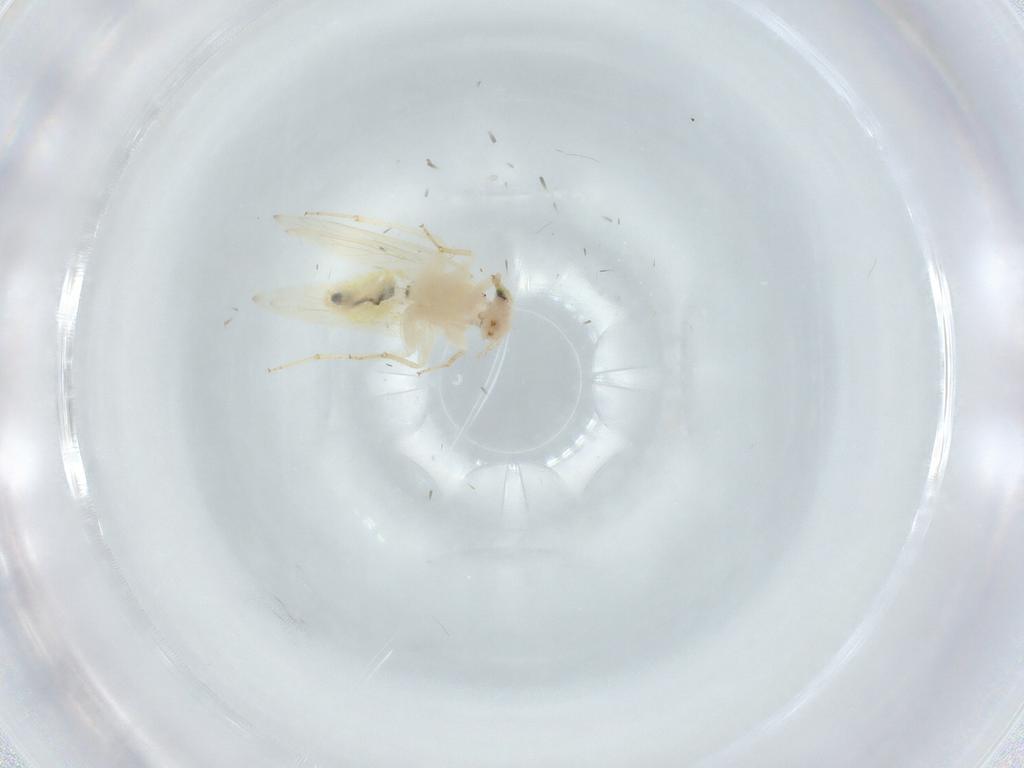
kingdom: Animalia
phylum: Arthropoda
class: Insecta
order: Psocodea
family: Lepidopsocidae
